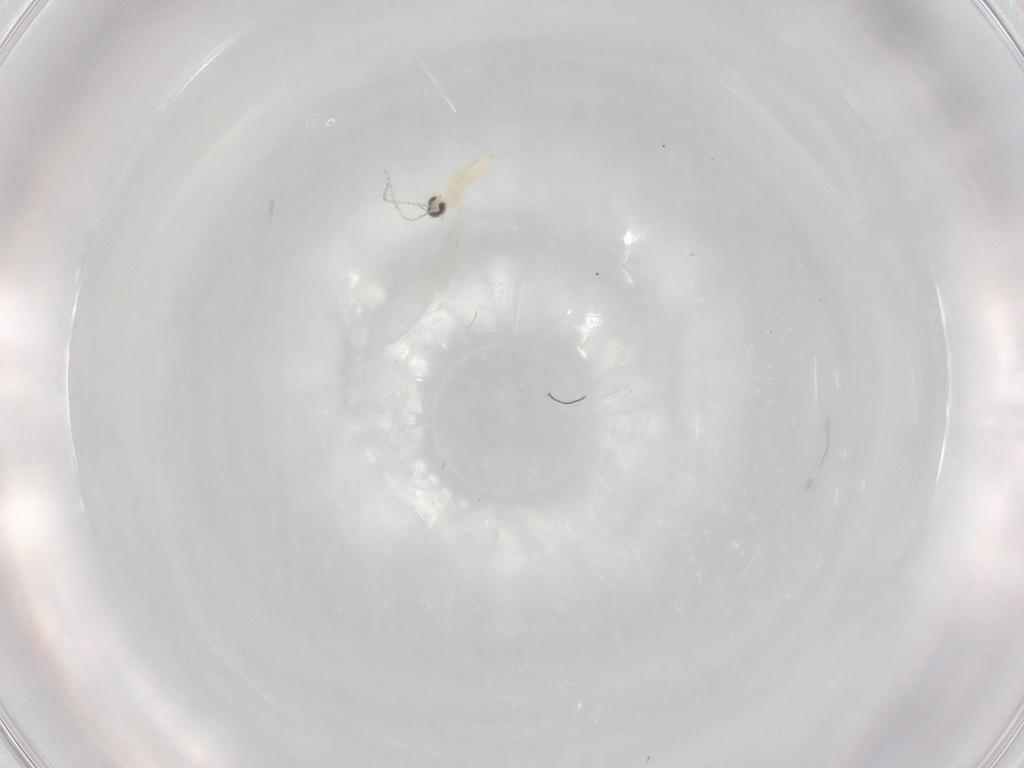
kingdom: Animalia
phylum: Arthropoda
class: Insecta
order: Diptera
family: Cecidomyiidae
